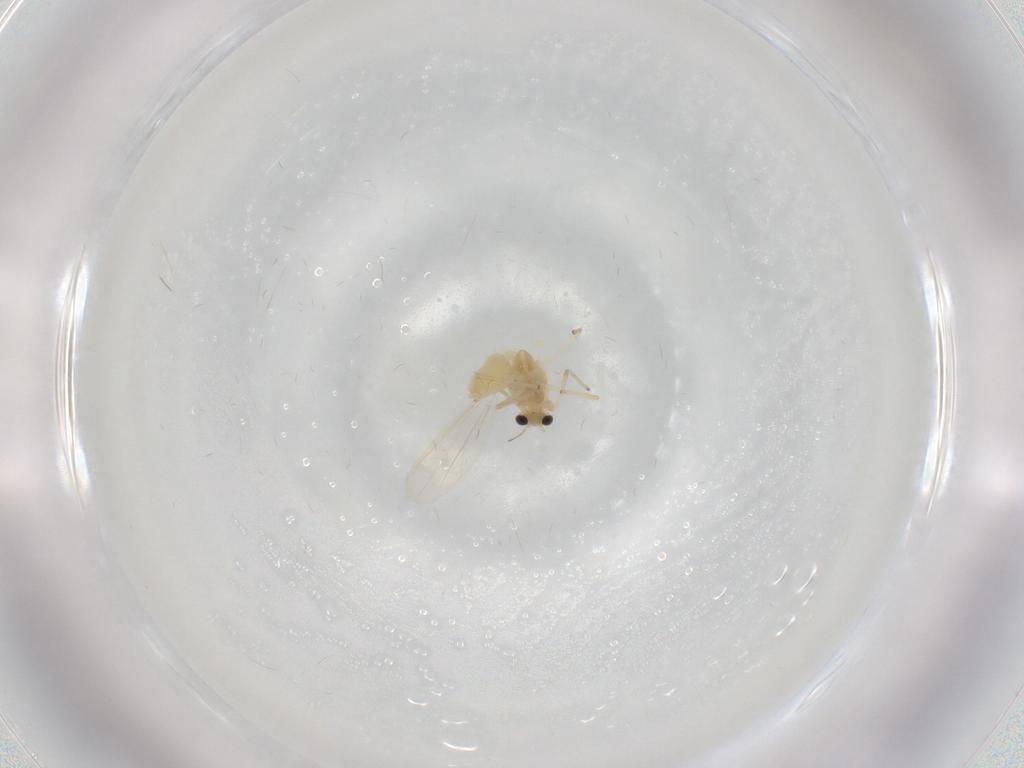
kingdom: Animalia
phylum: Arthropoda
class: Insecta
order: Diptera
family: Chironomidae
